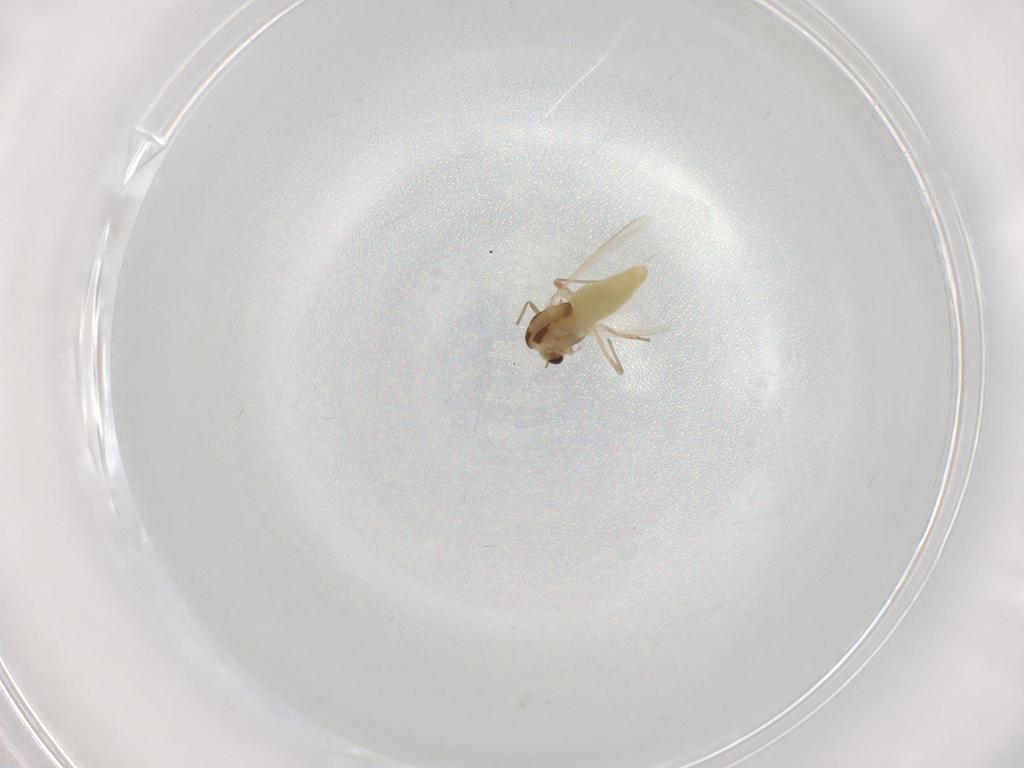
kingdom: Animalia
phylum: Arthropoda
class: Insecta
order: Diptera
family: Chironomidae
